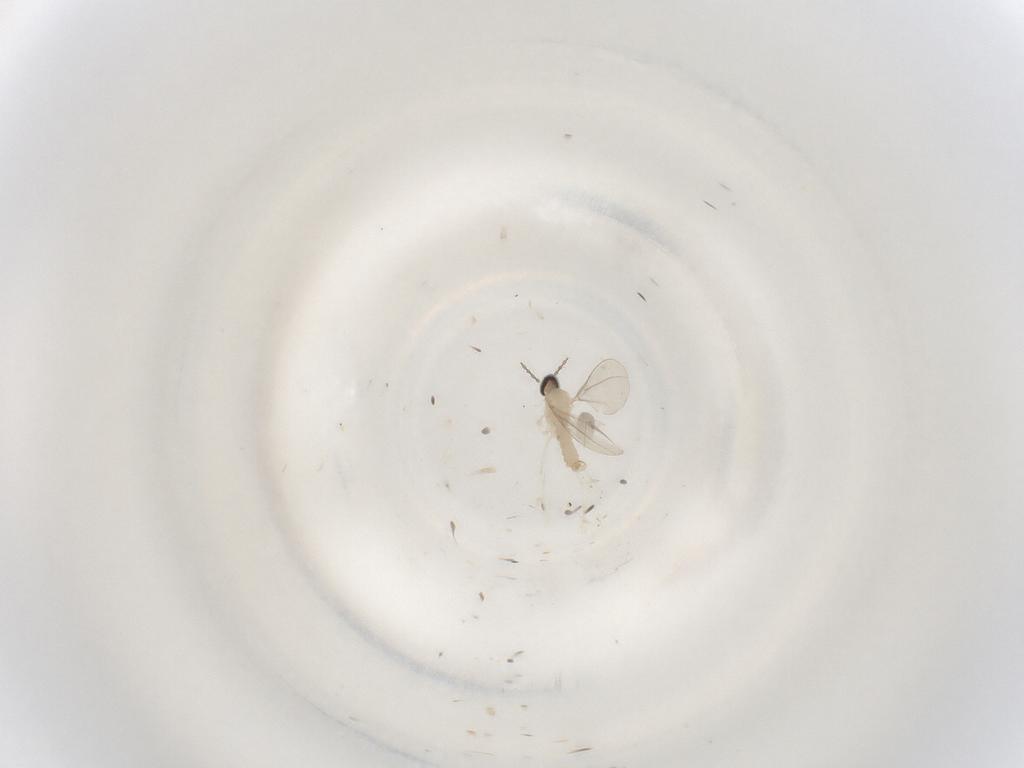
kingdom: Animalia
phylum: Arthropoda
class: Insecta
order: Diptera
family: Cecidomyiidae
